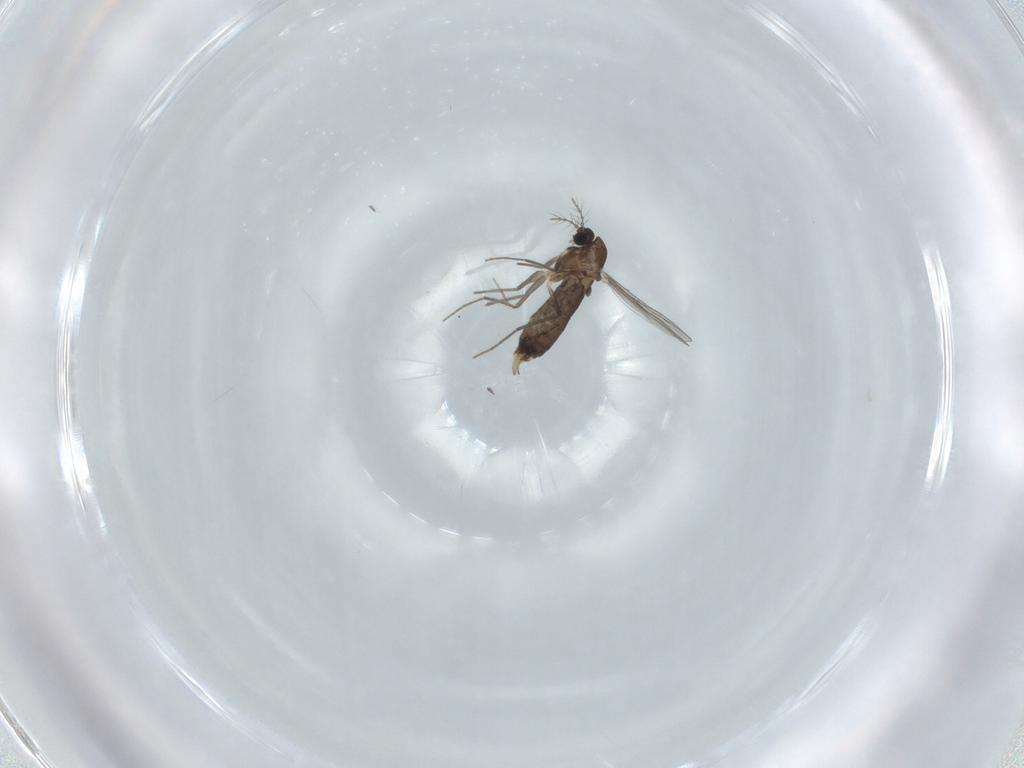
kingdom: Animalia
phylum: Arthropoda
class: Insecta
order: Diptera
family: Chironomidae
